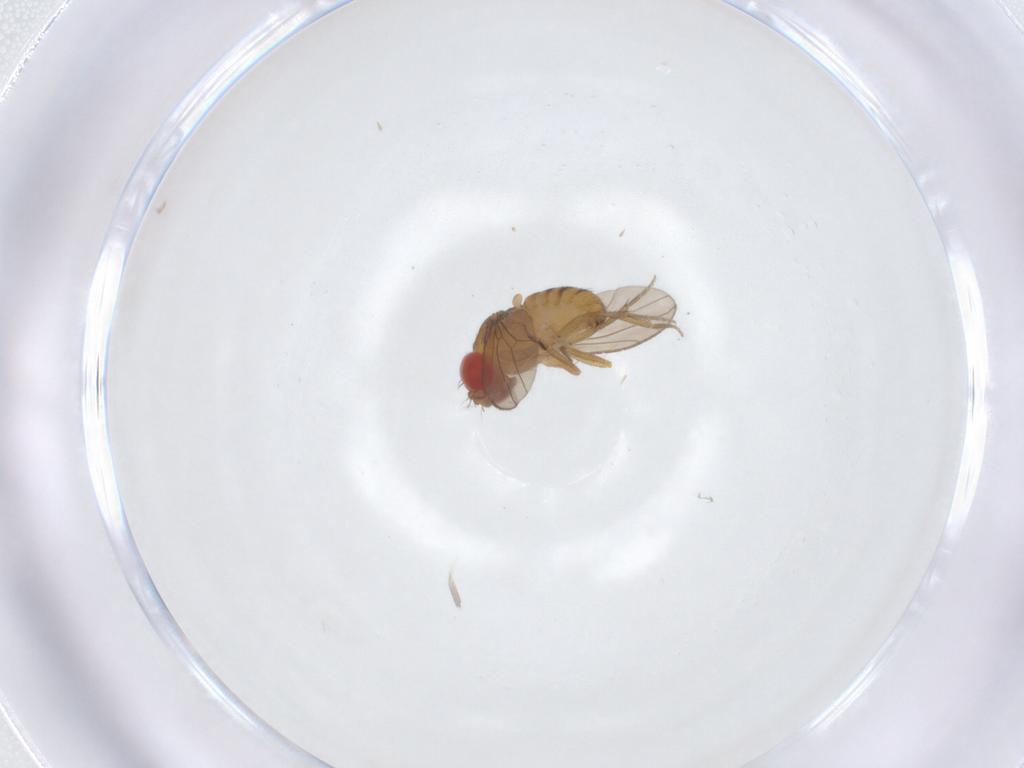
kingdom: Animalia
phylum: Arthropoda
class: Insecta
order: Diptera
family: Drosophilidae
